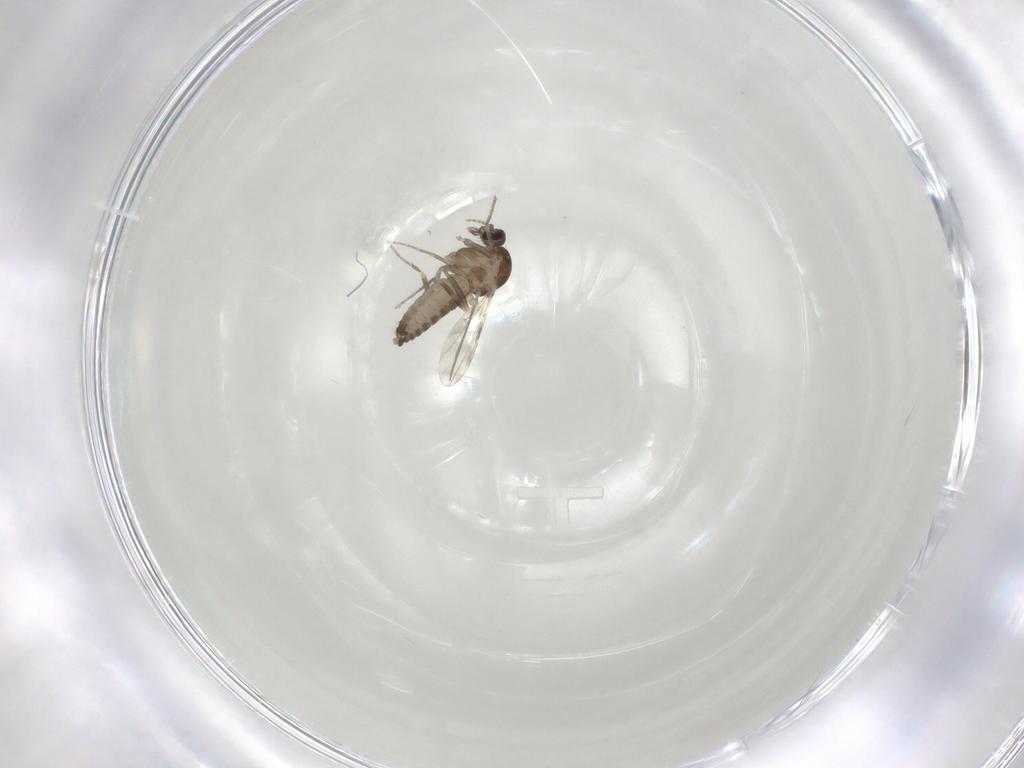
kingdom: Animalia
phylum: Arthropoda
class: Insecta
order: Diptera
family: Ceratopogonidae
